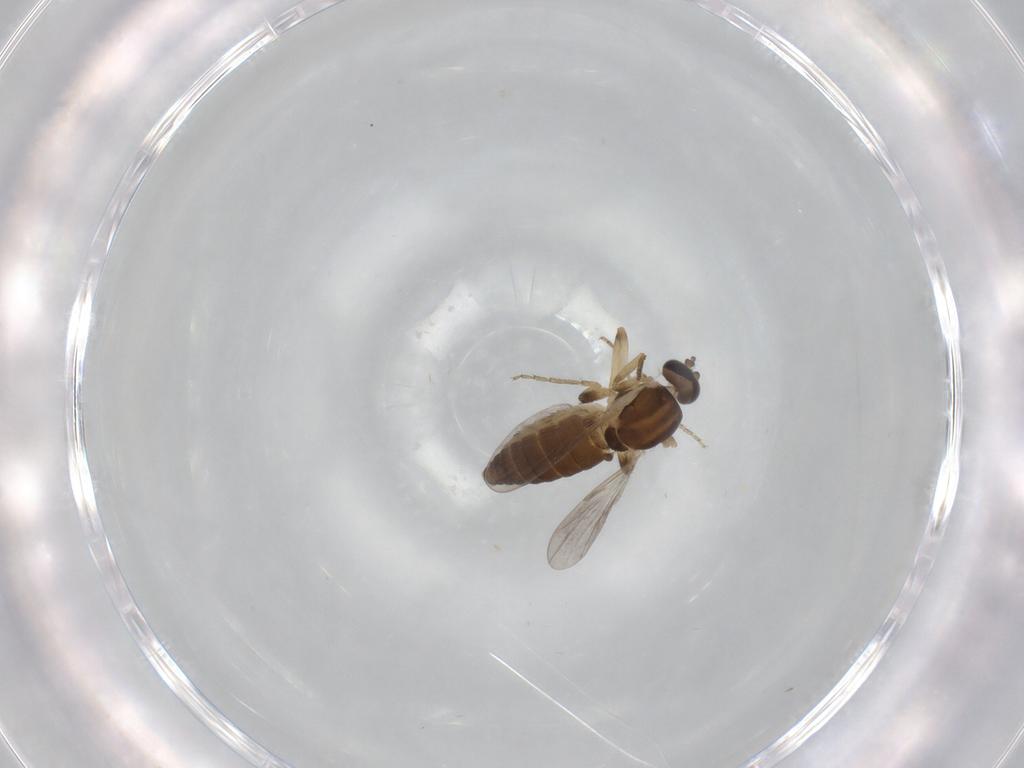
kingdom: Animalia
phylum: Arthropoda
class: Insecta
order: Diptera
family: Ceratopogonidae
